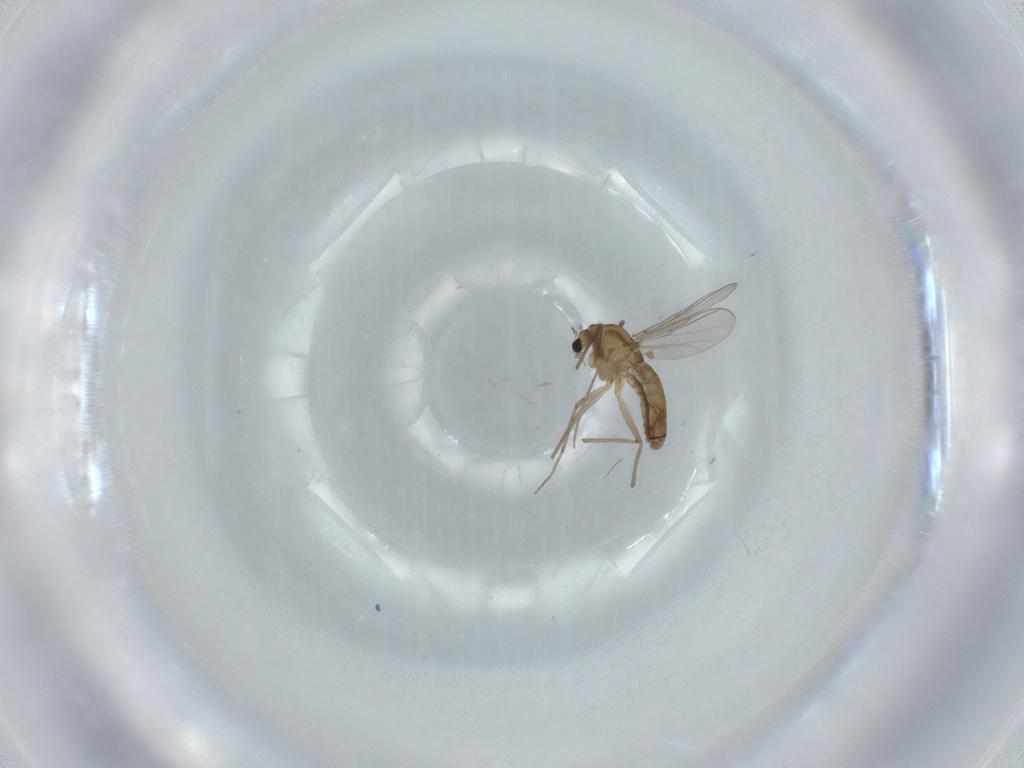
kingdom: Animalia
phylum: Arthropoda
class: Insecta
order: Diptera
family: Chironomidae
